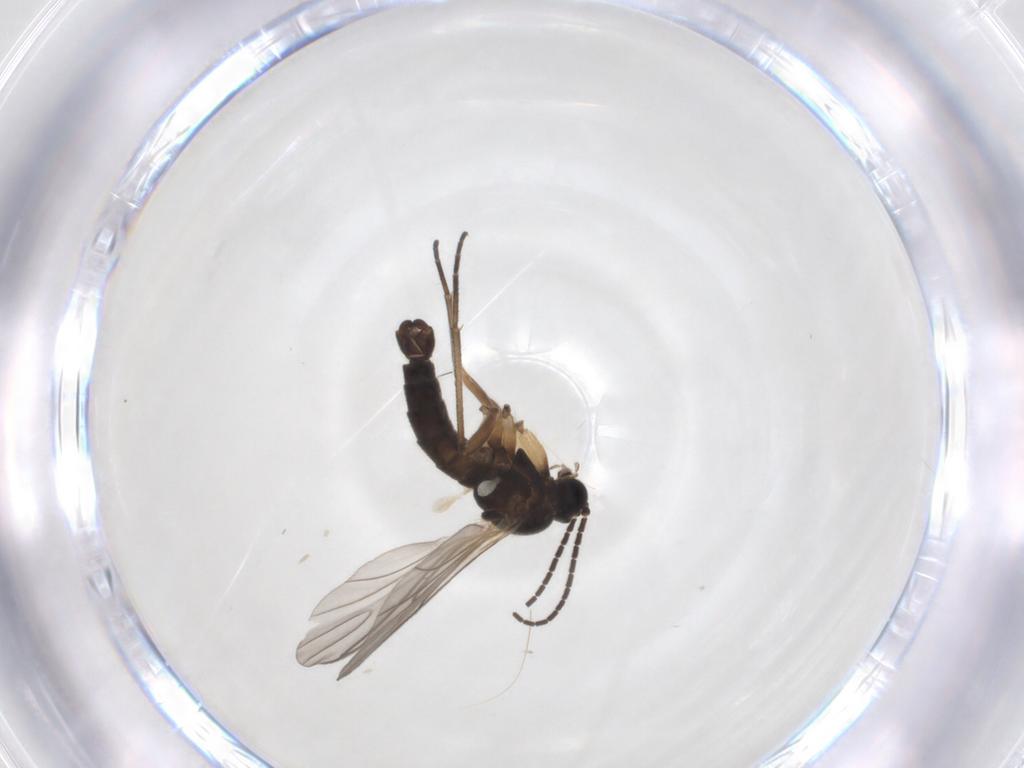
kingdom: Animalia
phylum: Arthropoda
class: Insecta
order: Diptera
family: Sciaridae
